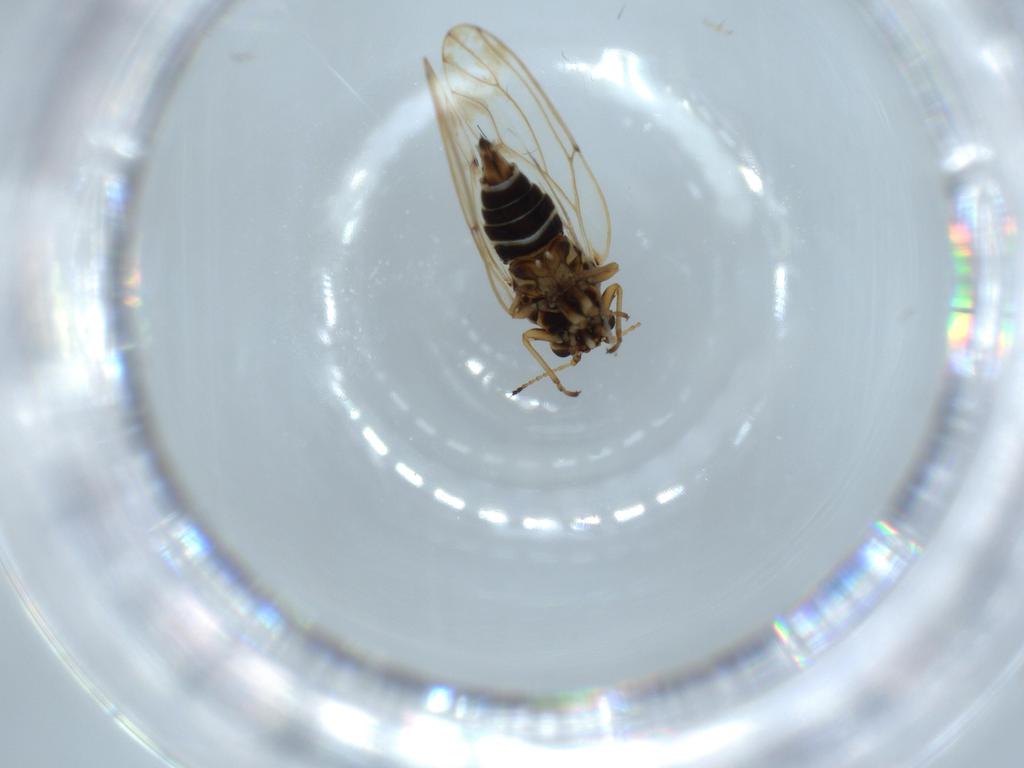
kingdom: Animalia
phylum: Arthropoda
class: Insecta
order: Hemiptera
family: Aphalaridae
